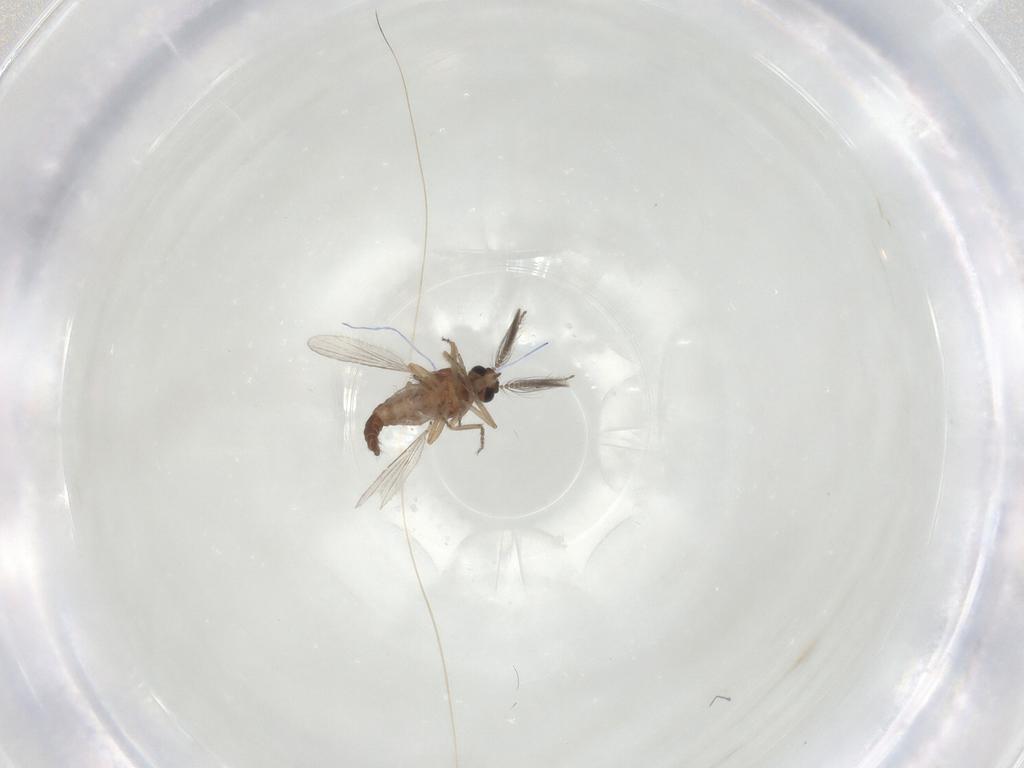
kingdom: Animalia
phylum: Arthropoda
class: Insecta
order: Diptera
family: Ceratopogonidae
